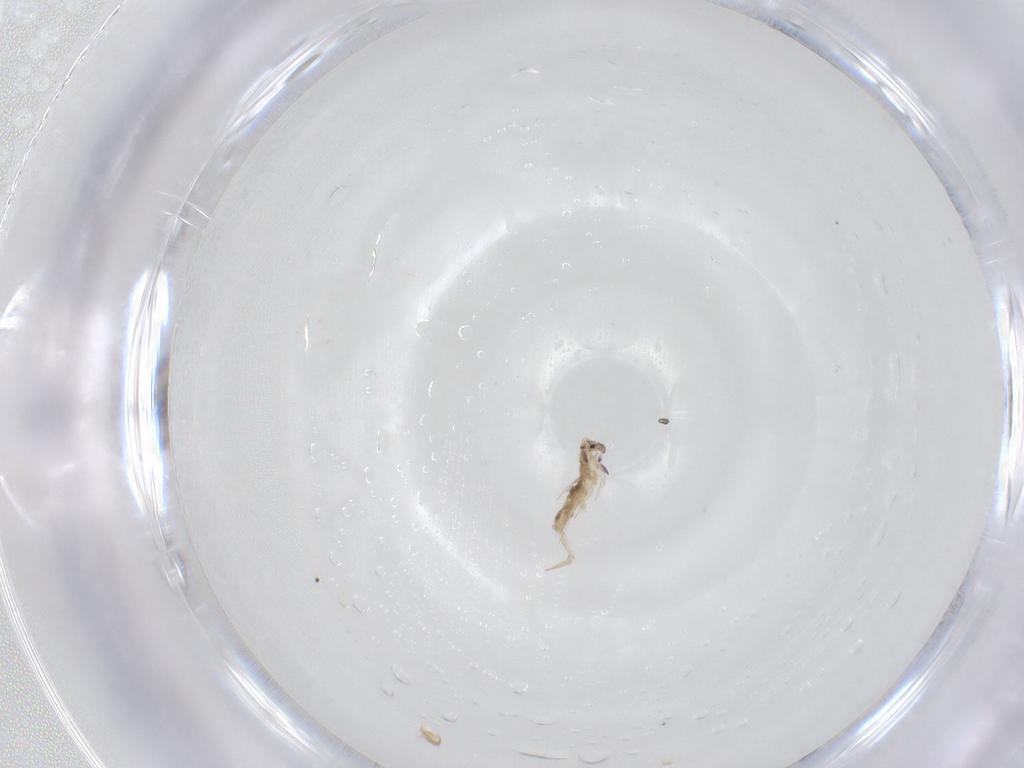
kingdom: Animalia
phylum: Arthropoda
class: Collembola
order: Entomobryomorpha
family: Entomobryidae
